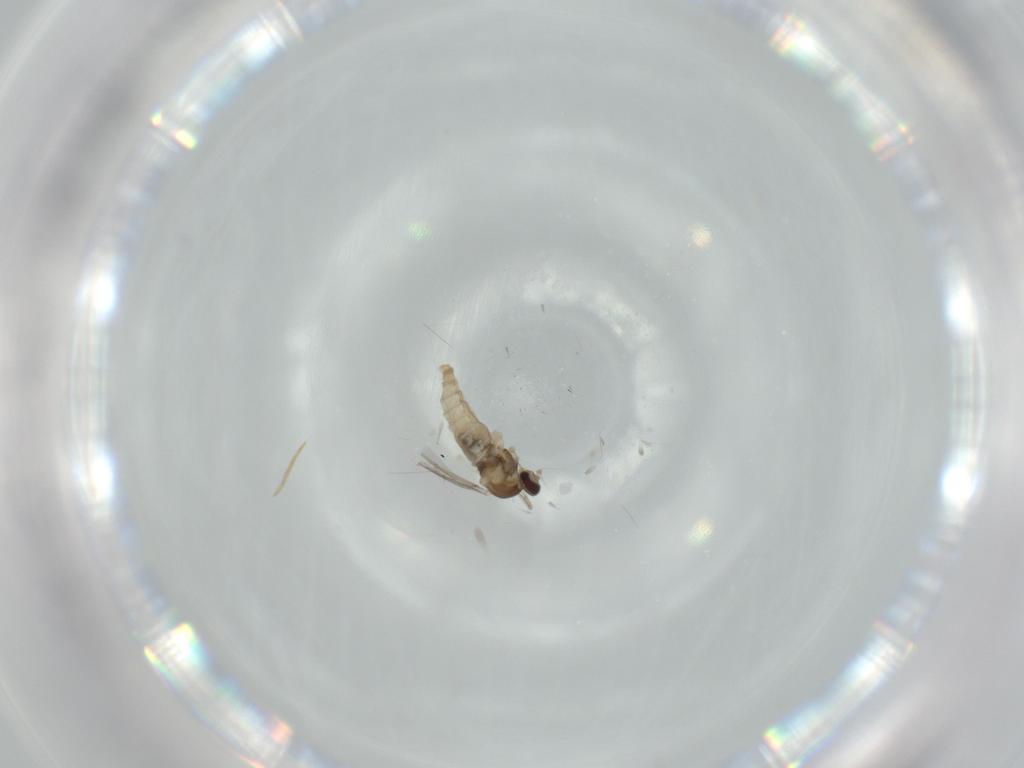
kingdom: Animalia
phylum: Arthropoda
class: Insecta
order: Diptera
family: Cecidomyiidae
